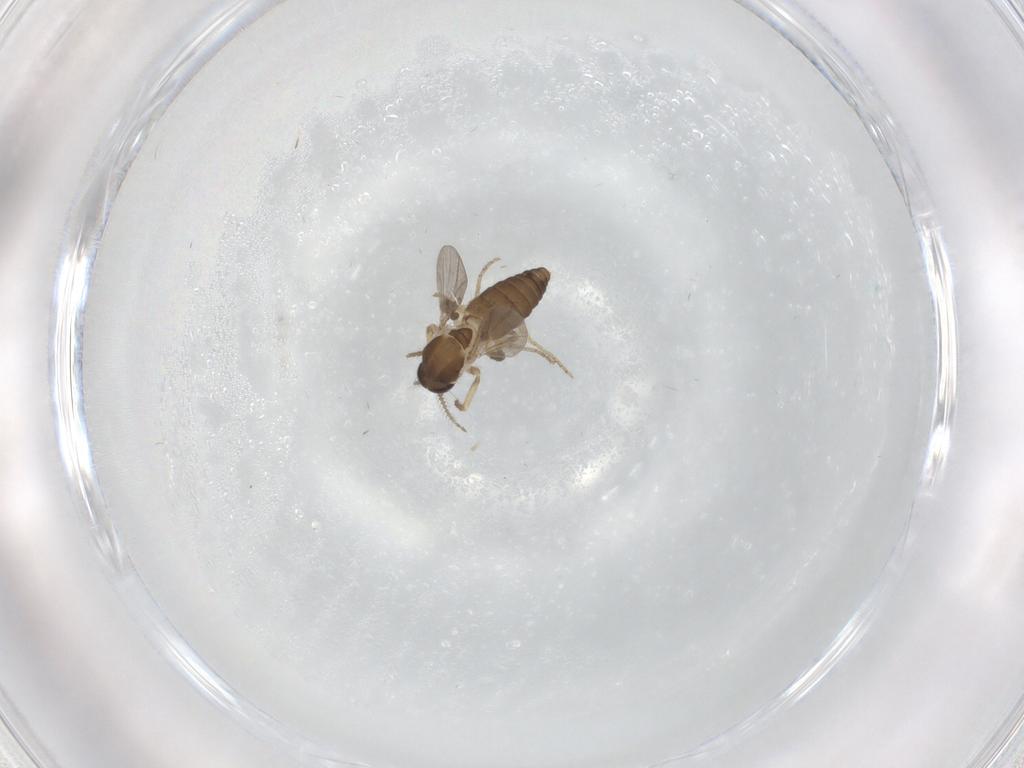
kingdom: Animalia
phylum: Arthropoda
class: Insecta
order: Diptera
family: Ceratopogonidae
